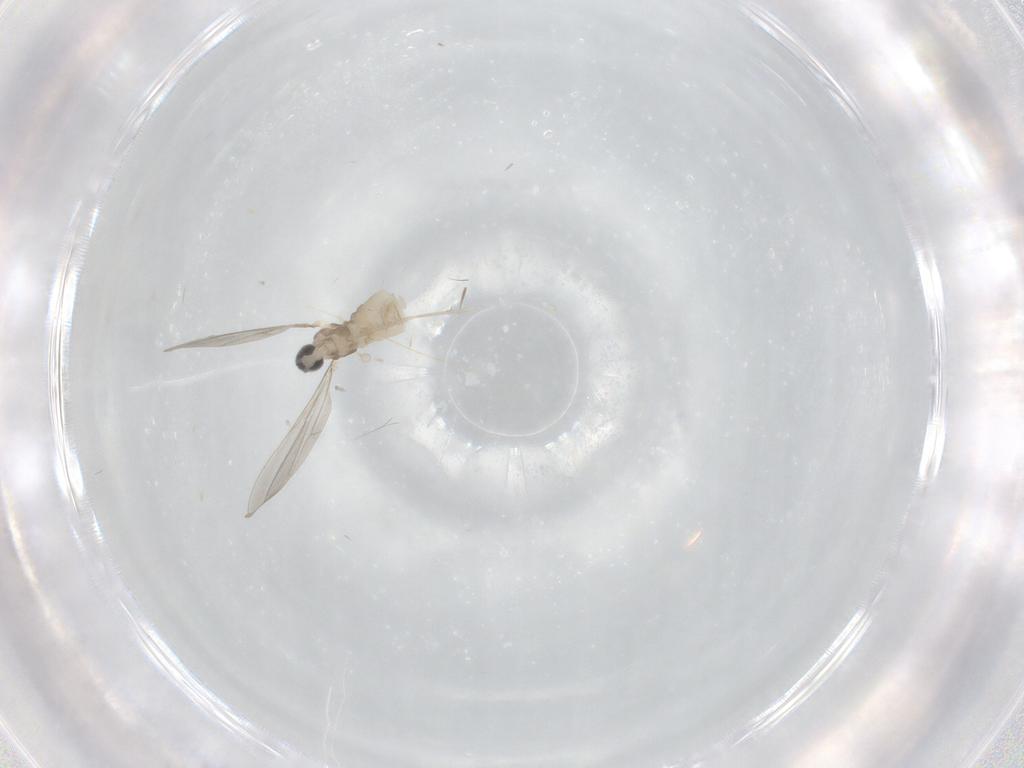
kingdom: Animalia
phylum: Arthropoda
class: Insecta
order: Diptera
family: Cecidomyiidae
